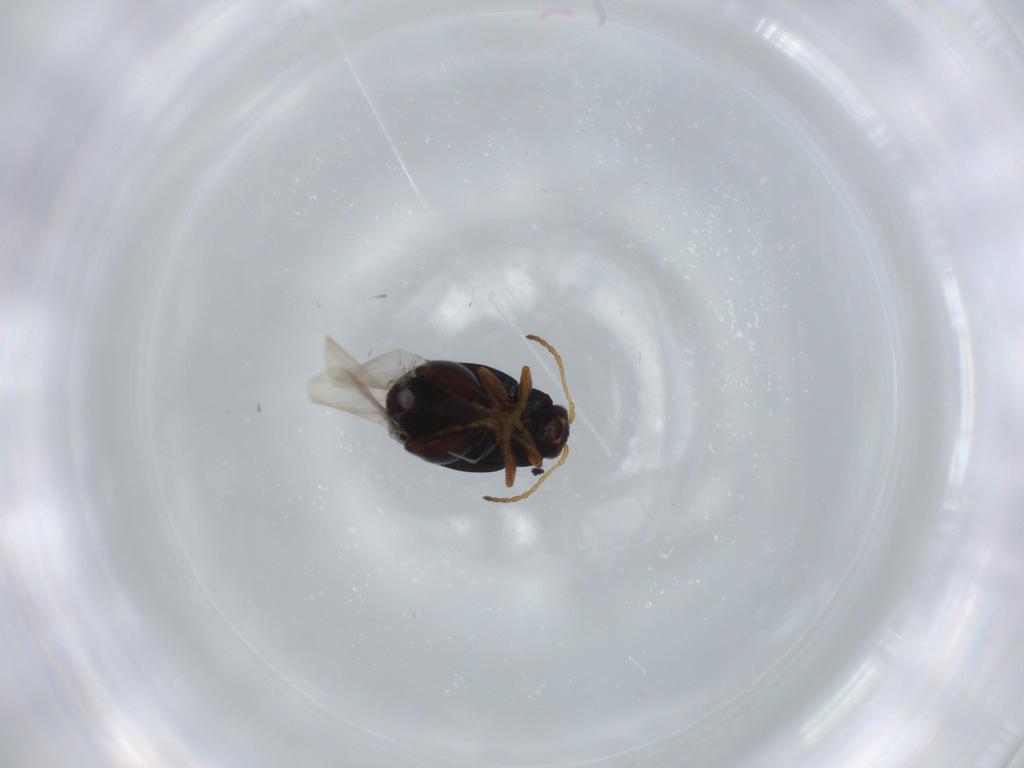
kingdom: Animalia
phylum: Arthropoda
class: Insecta
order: Coleoptera
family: Chrysomelidae
